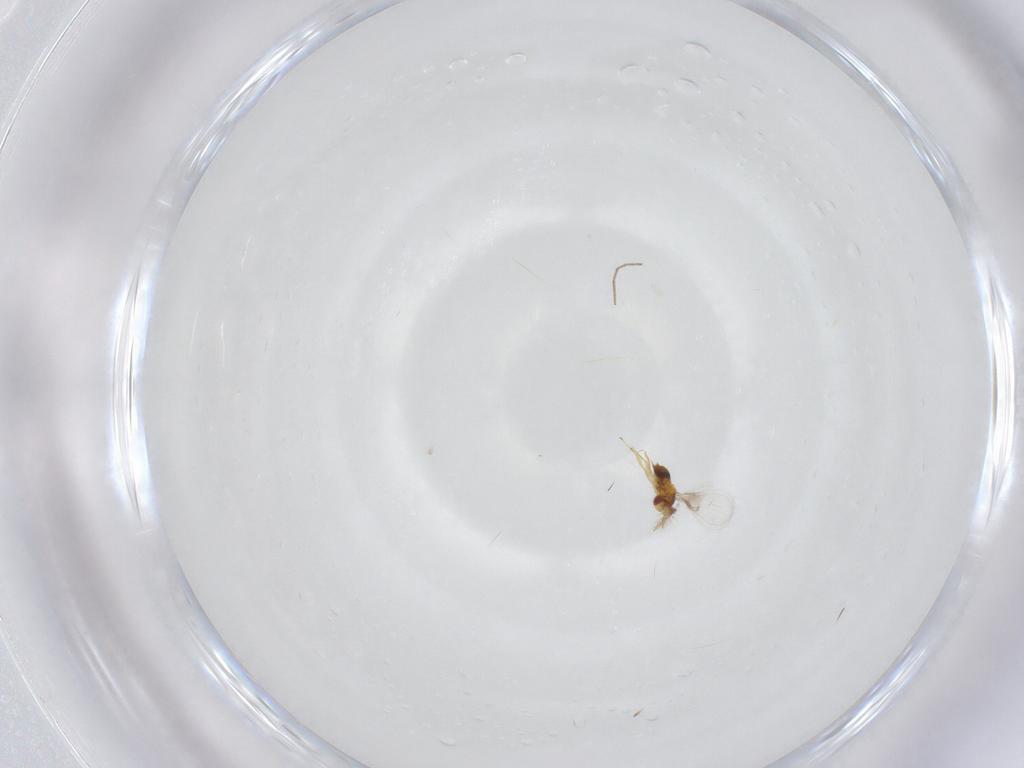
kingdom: Animalia
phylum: Arthropoda
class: Insecta
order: Hymenoptera
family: Trichogrammatidae
